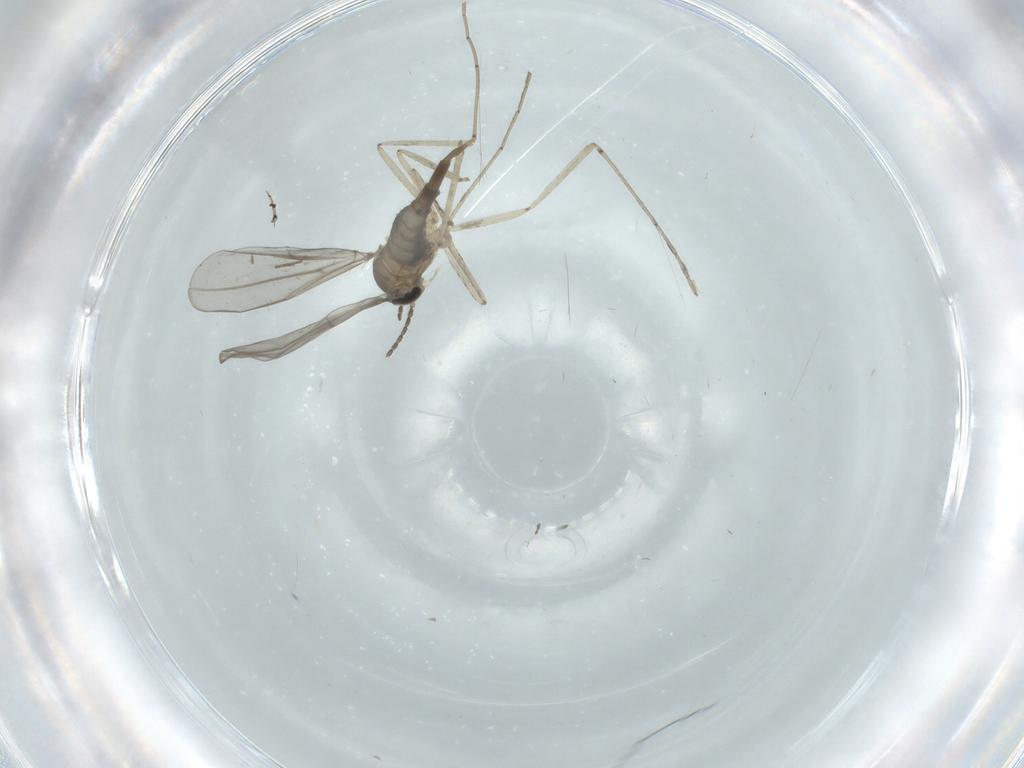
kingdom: Animalia
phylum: Arthropoda
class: Insecta
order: Diptera
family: Cecidomyiidae
